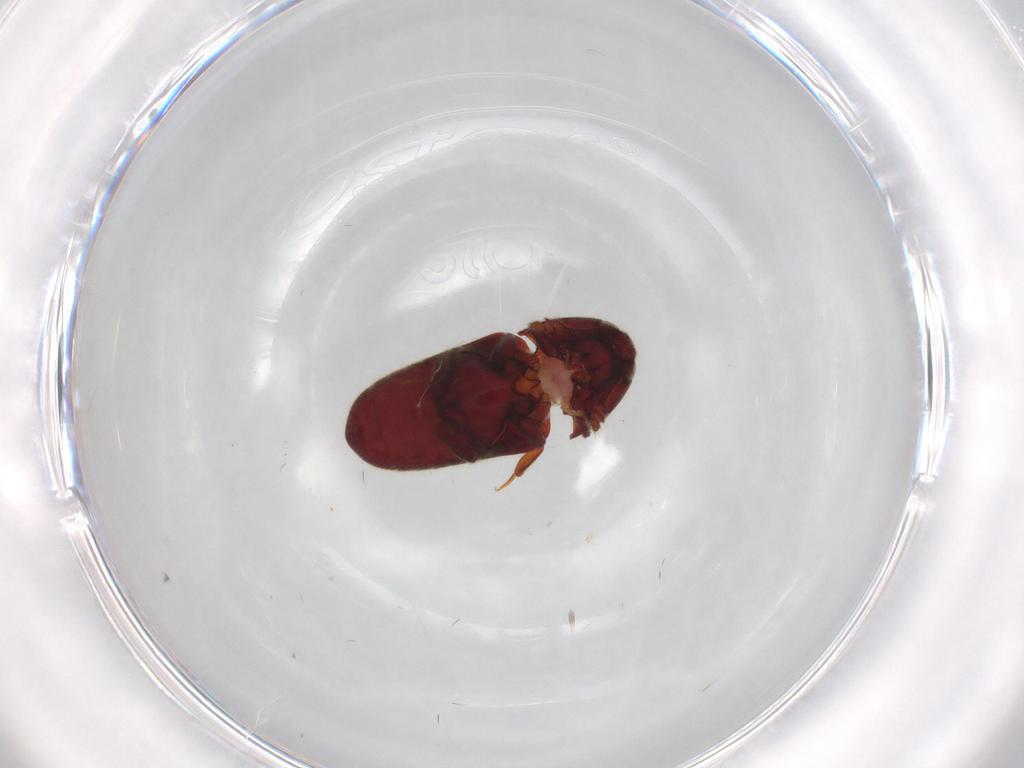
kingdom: Animalia
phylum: Arthropoda
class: Insecta
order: Coleoptera
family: Throscidae
